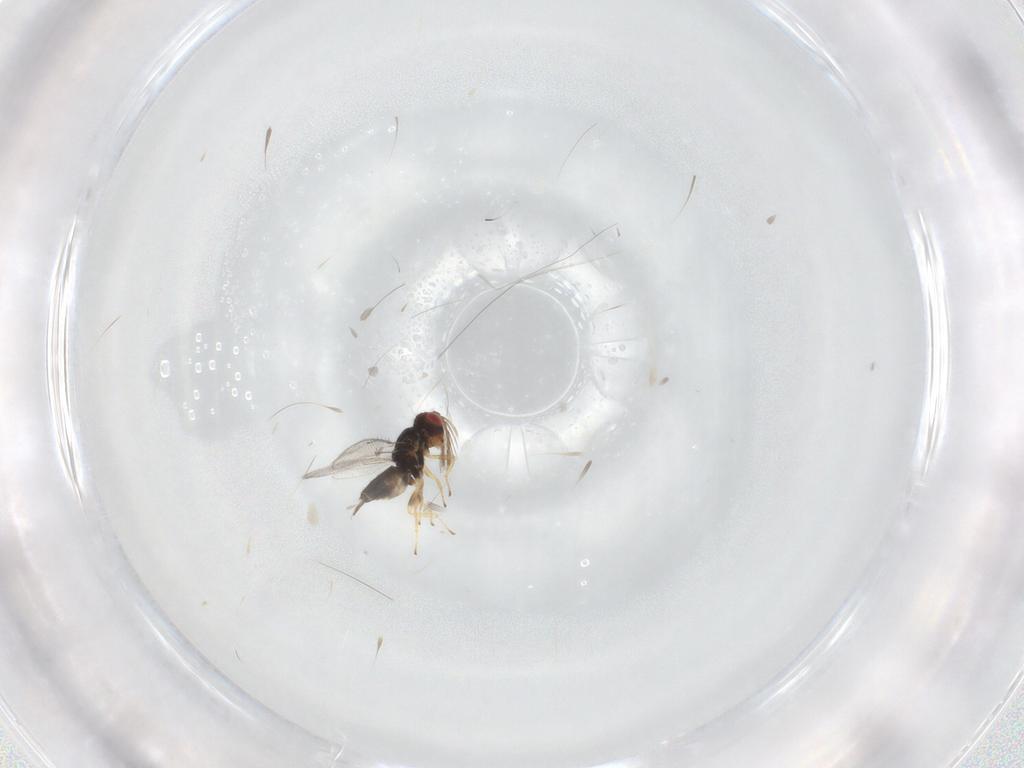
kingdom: Animalia
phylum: Arthropoda
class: Insecta
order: Hymenoptera
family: Eulophidae
